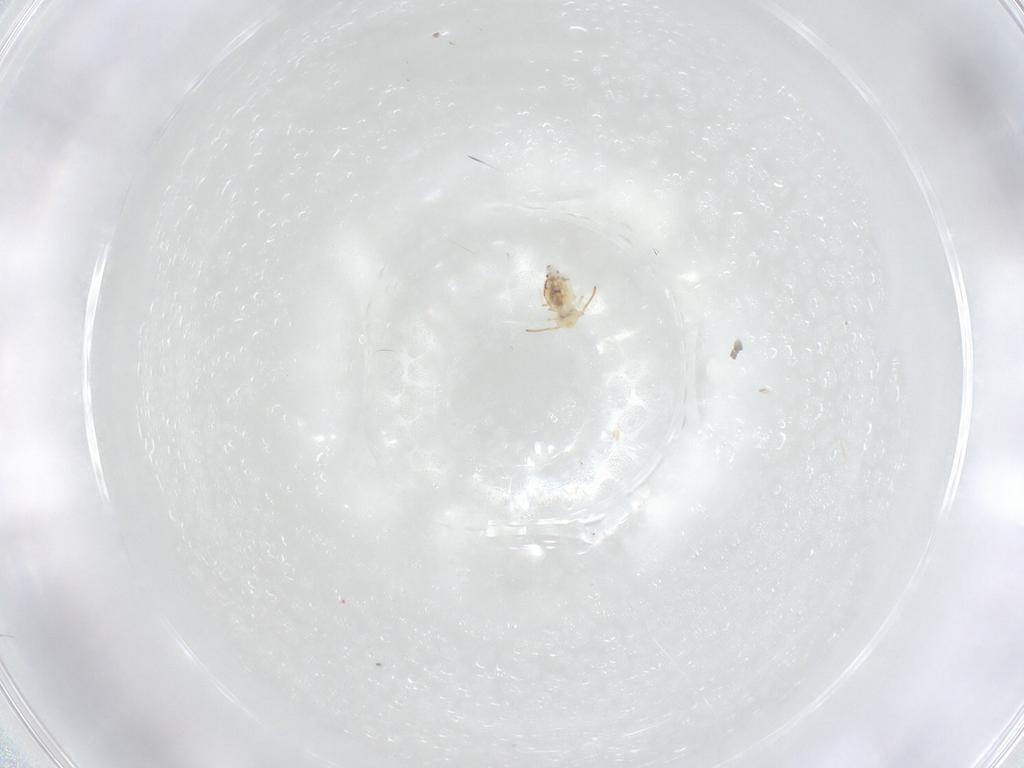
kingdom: Animalia
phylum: Arthropoda
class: Collembola
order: Symphypleona
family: Bourletiellidae
